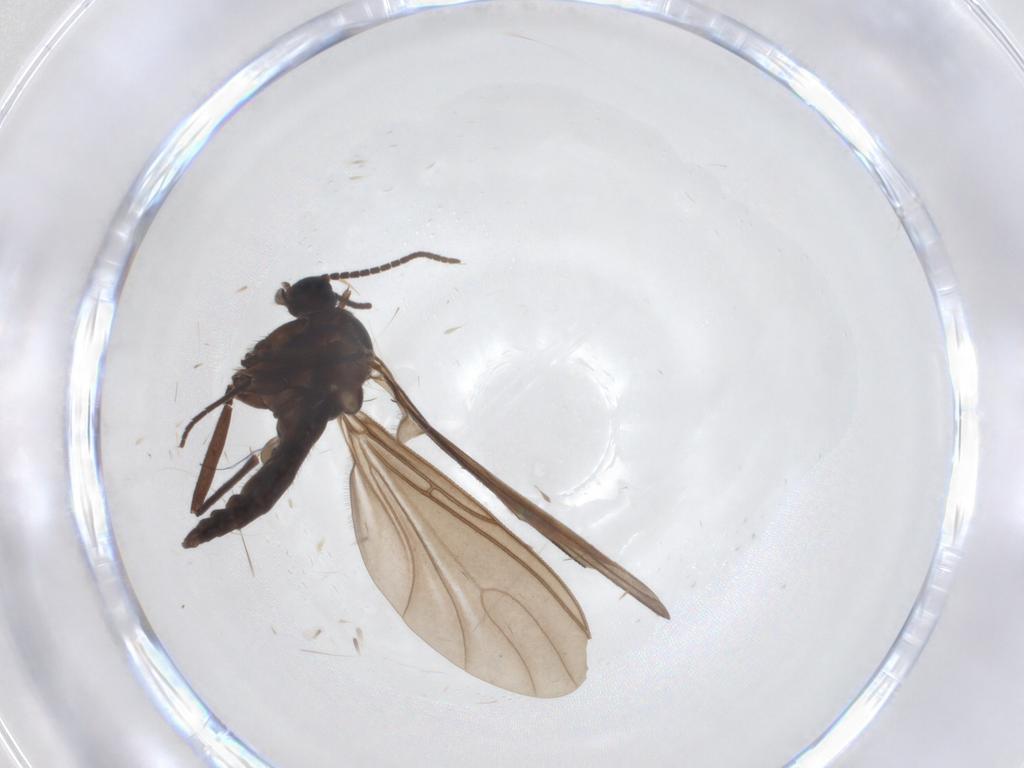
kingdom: Animalia
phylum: Arthropoda
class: Insecta
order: Diptera
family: Sciaridae
